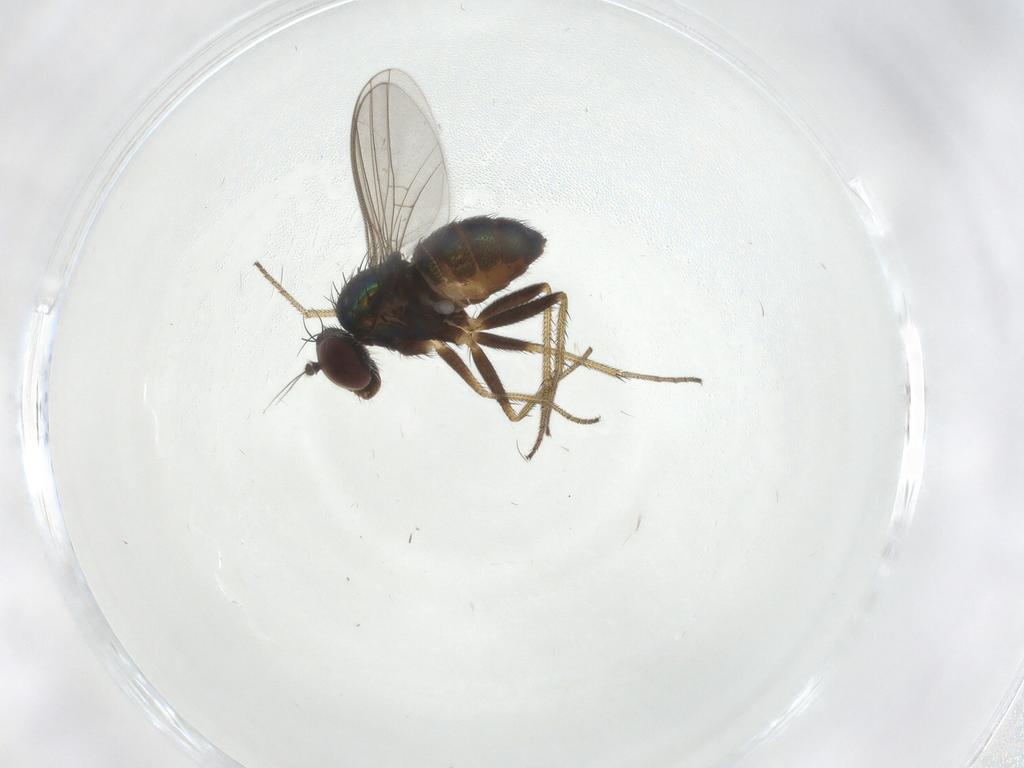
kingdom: Animalia
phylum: Arthropoda
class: Insecta
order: Diptera
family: Dolichopodidae
